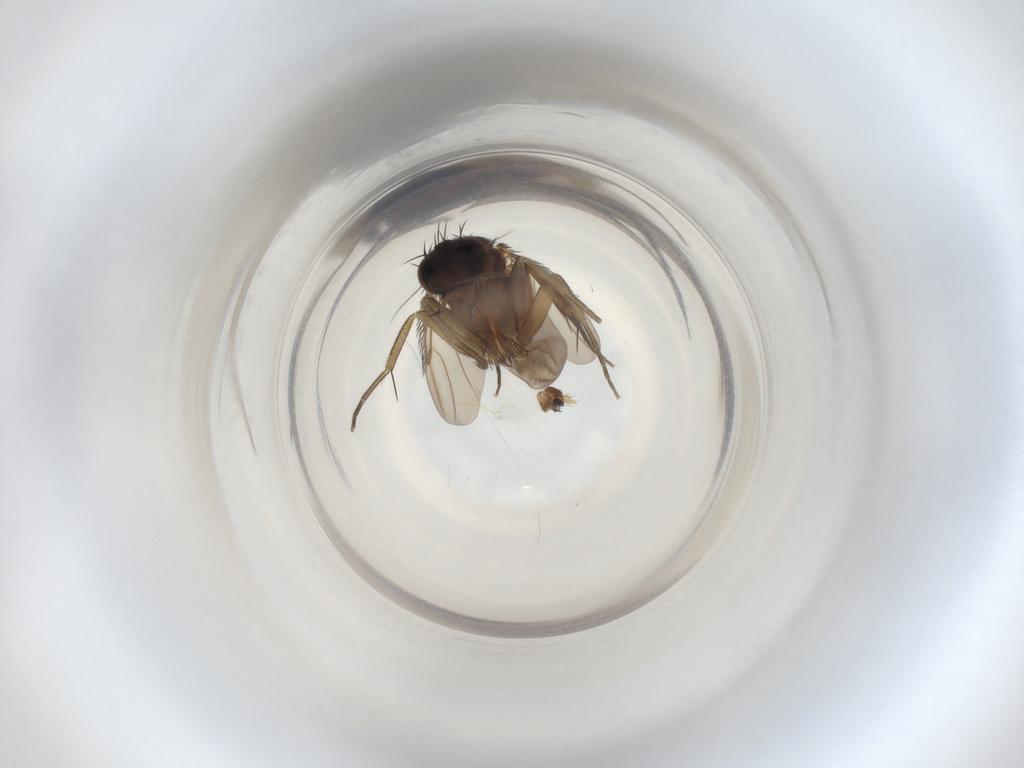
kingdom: Animalia
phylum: Arthropoda
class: Insecta
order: Diptera
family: Phoridae
